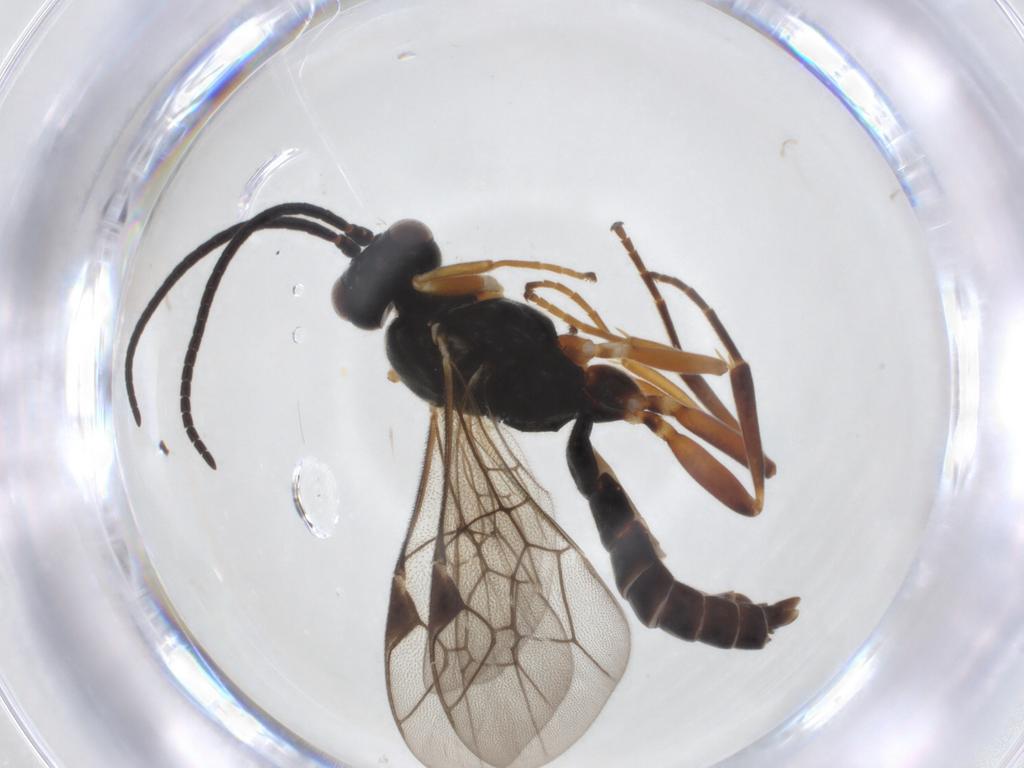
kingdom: Animalia
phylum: Arthropoda
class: Insecta
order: Hymenoptera
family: Ichneumonidae
